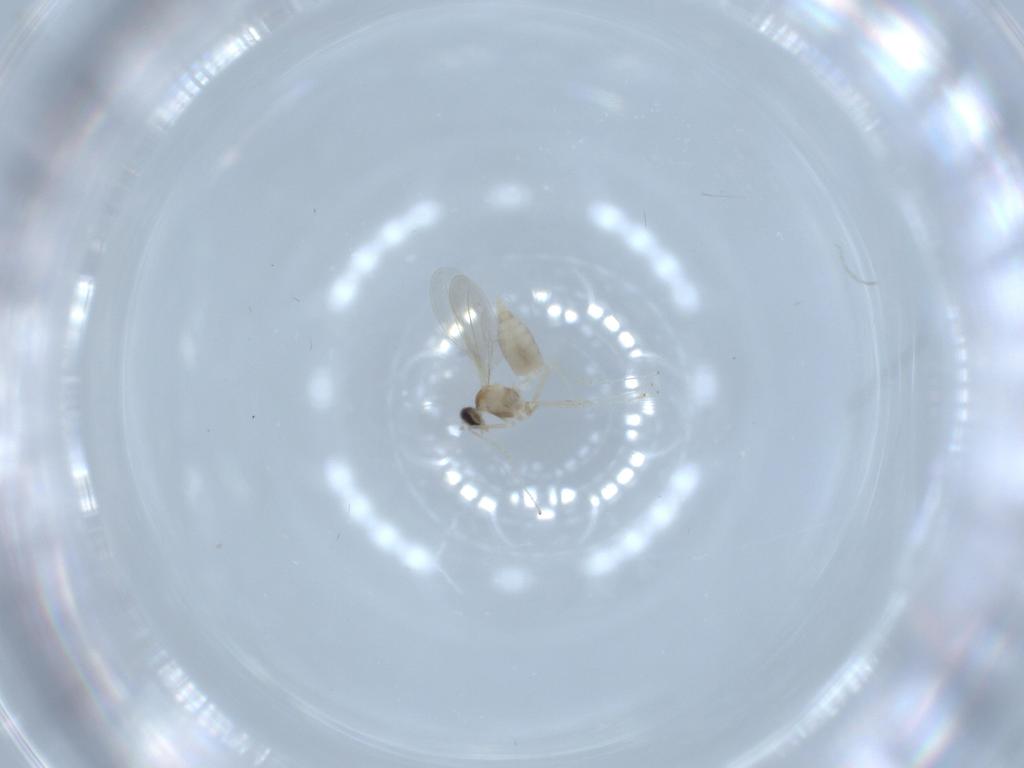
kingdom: Animalia
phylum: Arthropoda
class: Insecta
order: Diptera
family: Cecidomyiidae
